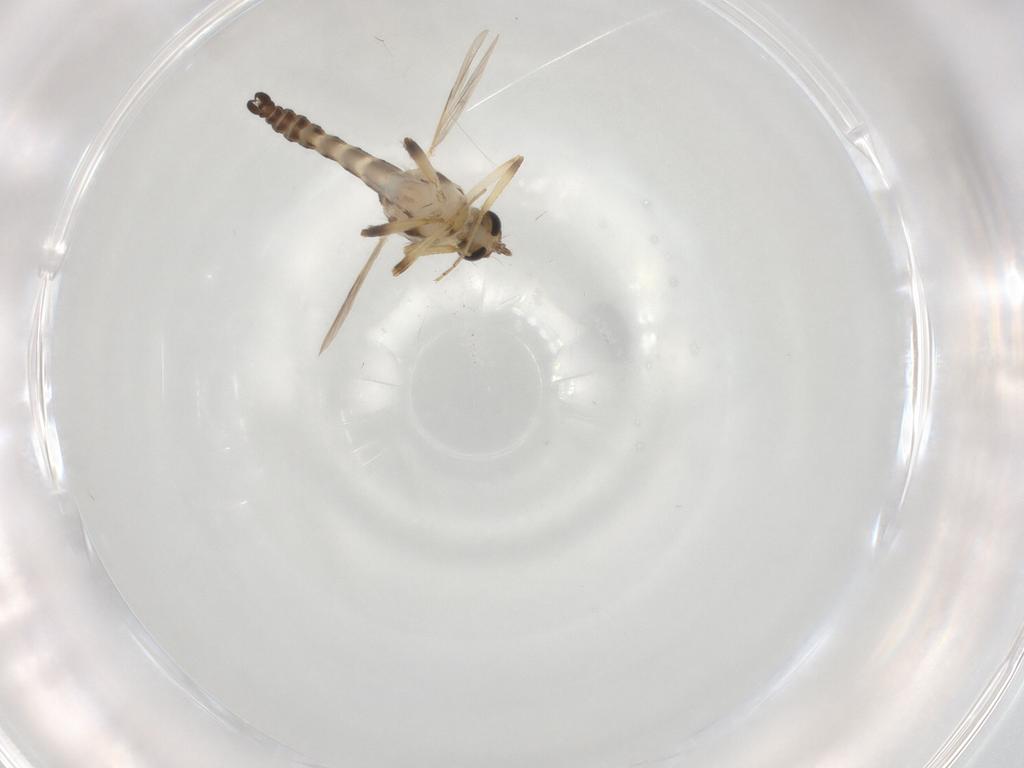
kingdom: Animalia
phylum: Arthropoda
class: Insecta
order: Diptera
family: Ceratopogonidae
